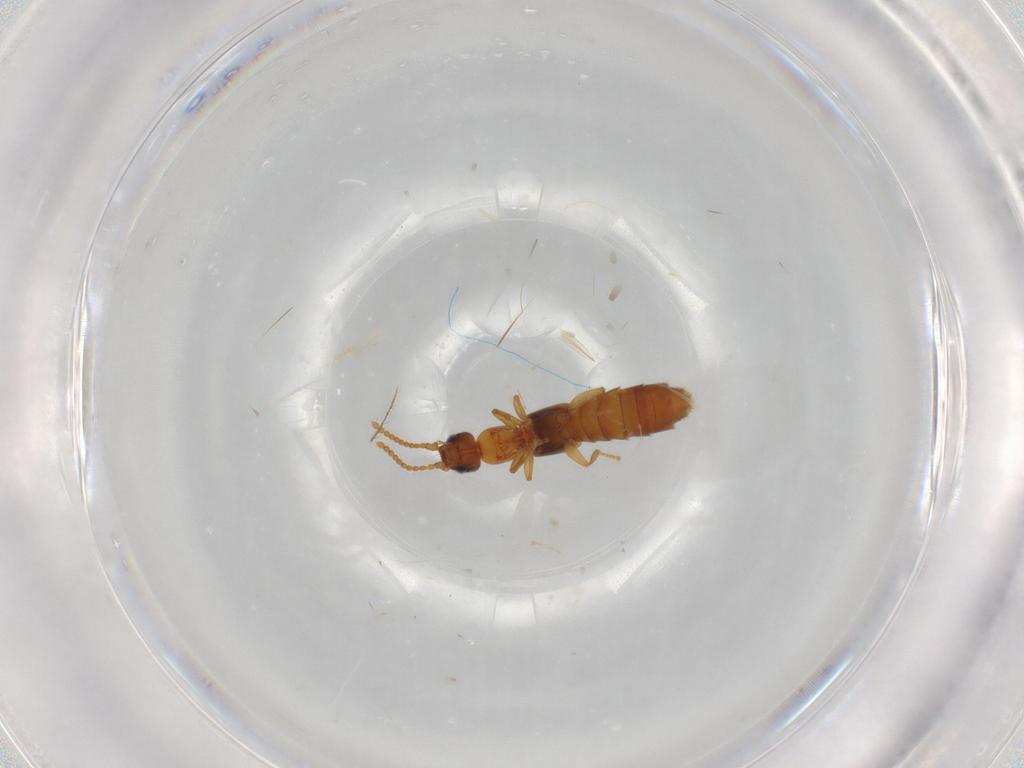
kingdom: Animalia
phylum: Arthropoda
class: Insecta
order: Coleoptera
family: Staphylinidae
